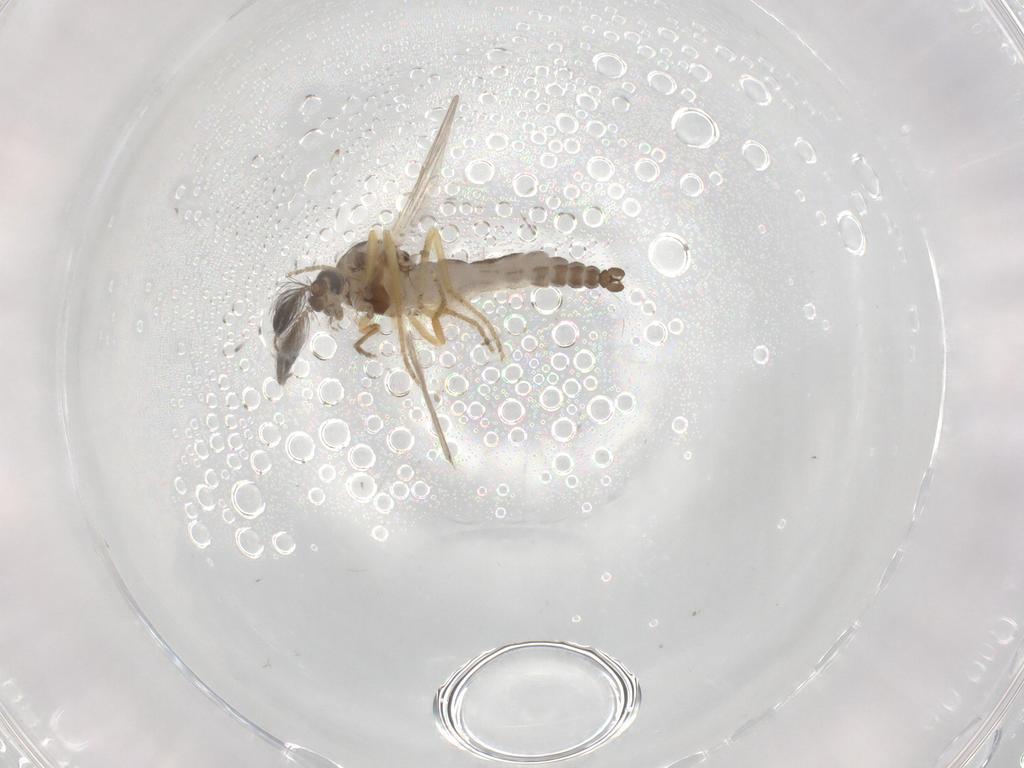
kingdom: Animalia
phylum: Arthropoda
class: Insecta
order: Diptera
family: Ceratopogonidae
